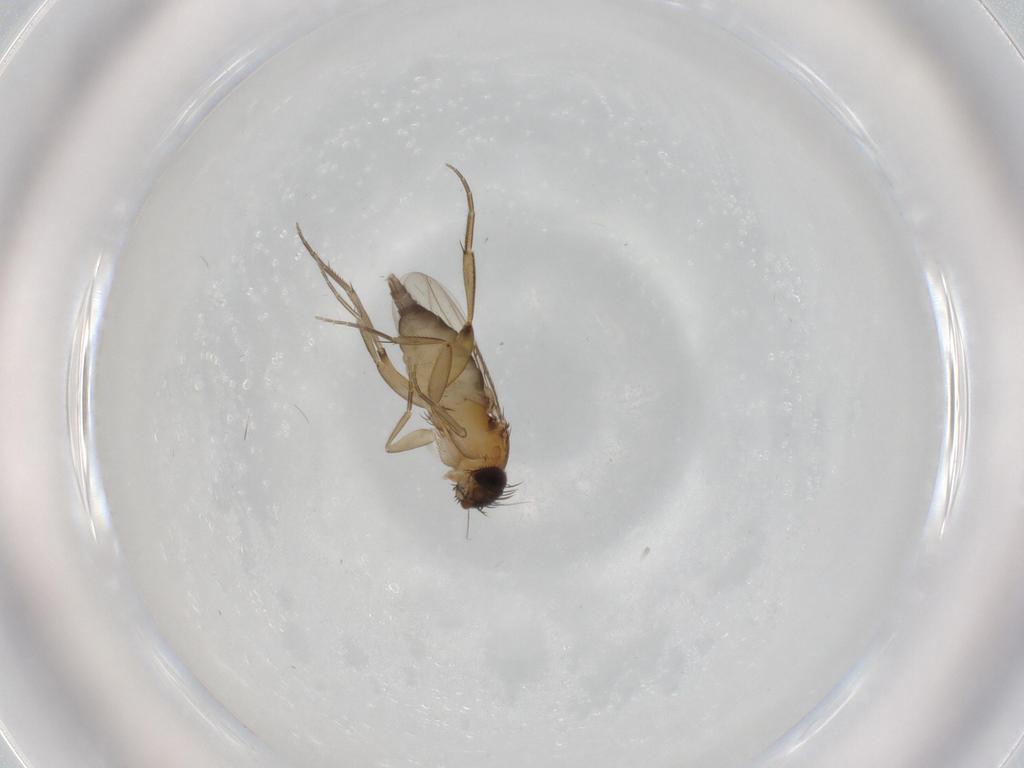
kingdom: Animalia
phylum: Arthropoda
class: Insecta
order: Diptera
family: Phoridae
